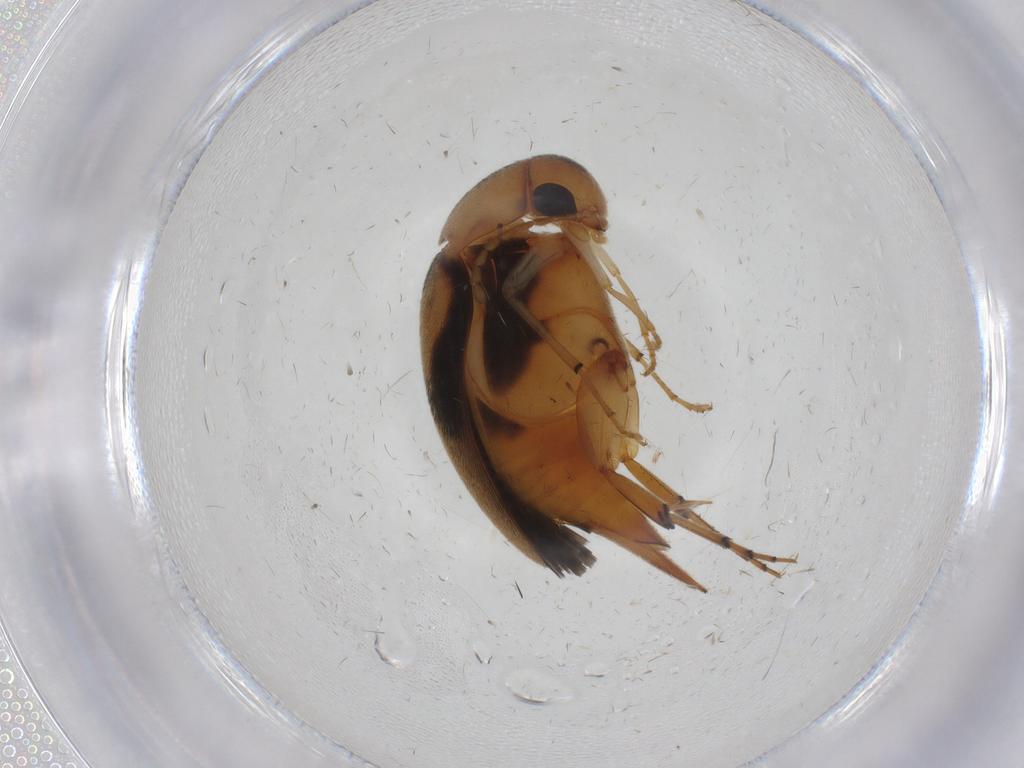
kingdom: Animalia
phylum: Arthropoda
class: Insecta
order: Coleoptera
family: Mordellidae
